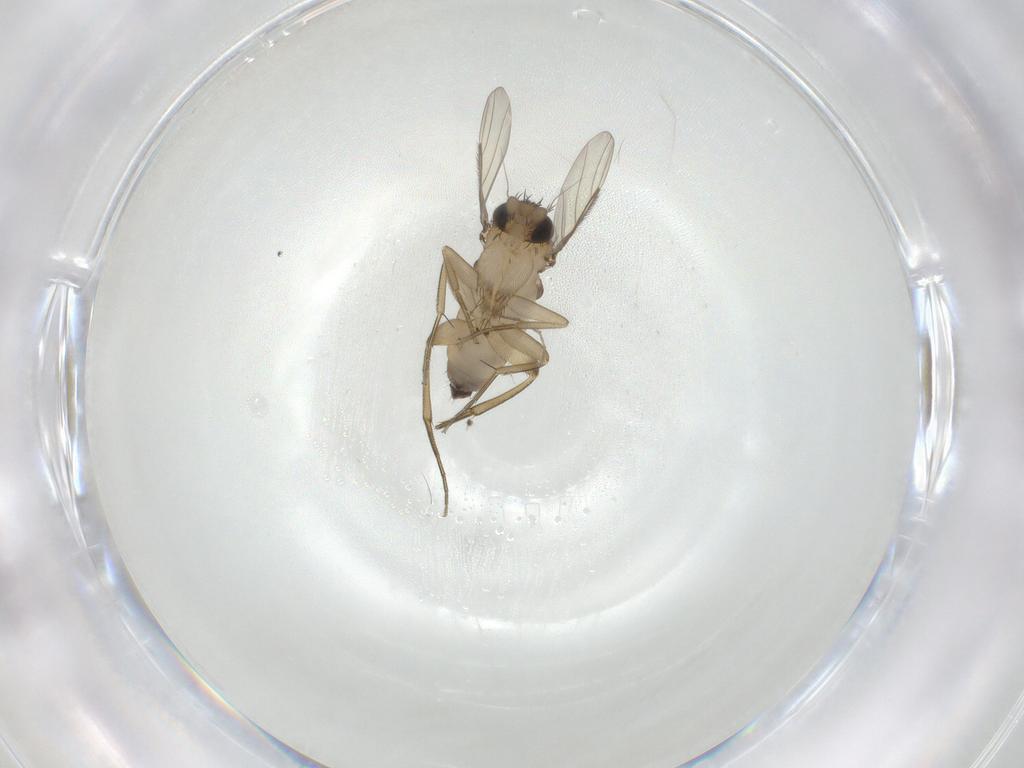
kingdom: Animalia
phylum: Arthropoda
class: Insecta
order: Diptera
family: Phoridae
